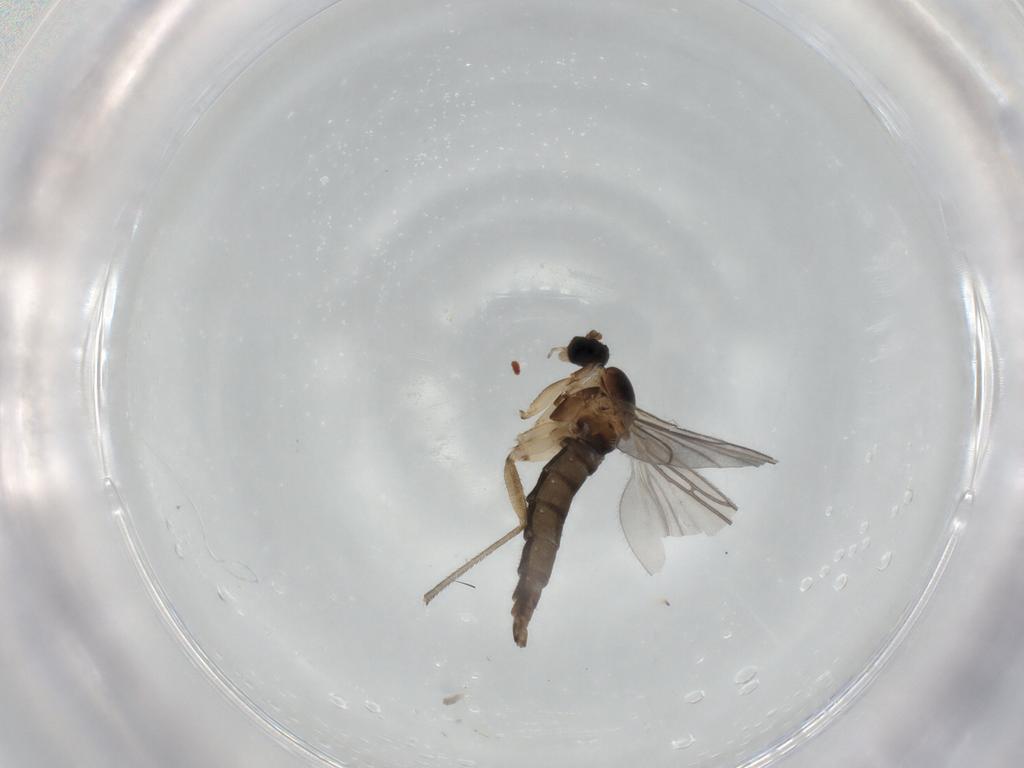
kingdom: Animalia
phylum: Arthropoda
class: Insecta
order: Diptera
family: Sciaridae
